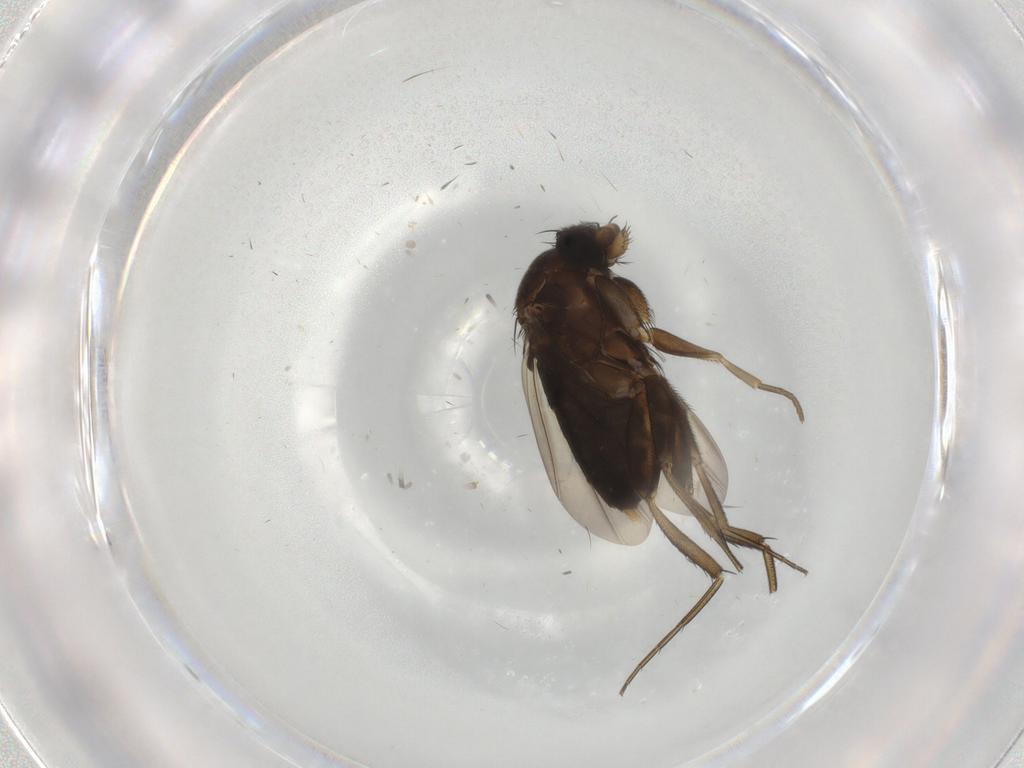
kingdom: Animalia
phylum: Arthropoda
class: Insecta
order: Diptera
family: Phoridae
